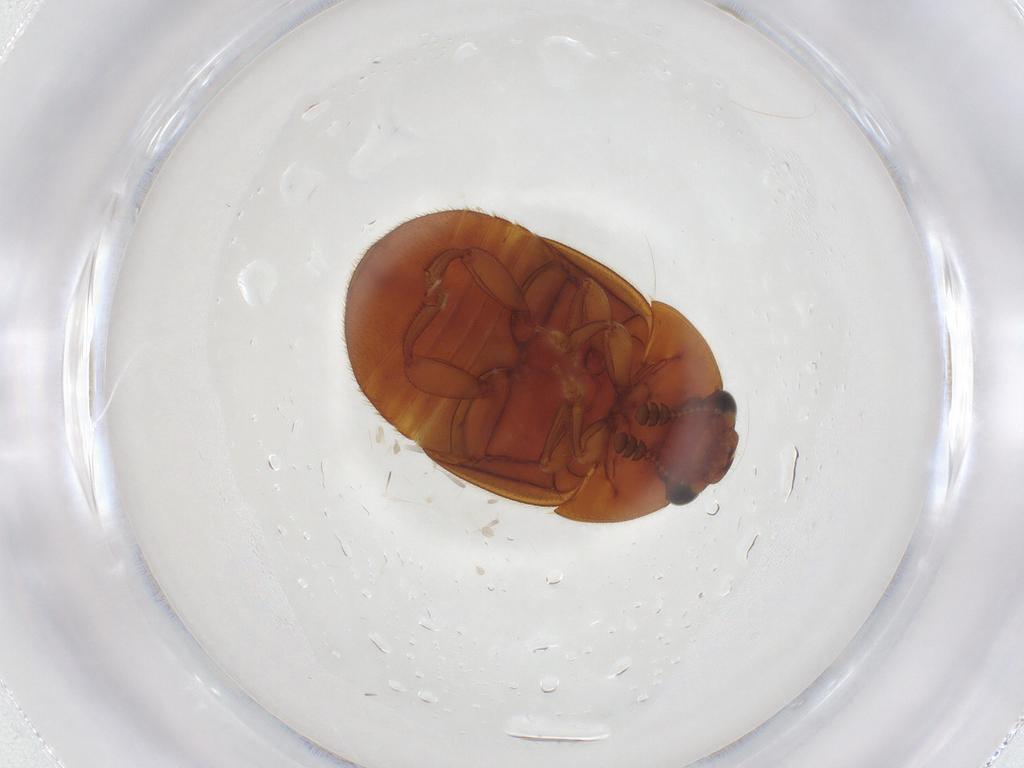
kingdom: Animalia
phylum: Arthropoda
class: Insecta
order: Coleoptera
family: Nitidulidae
